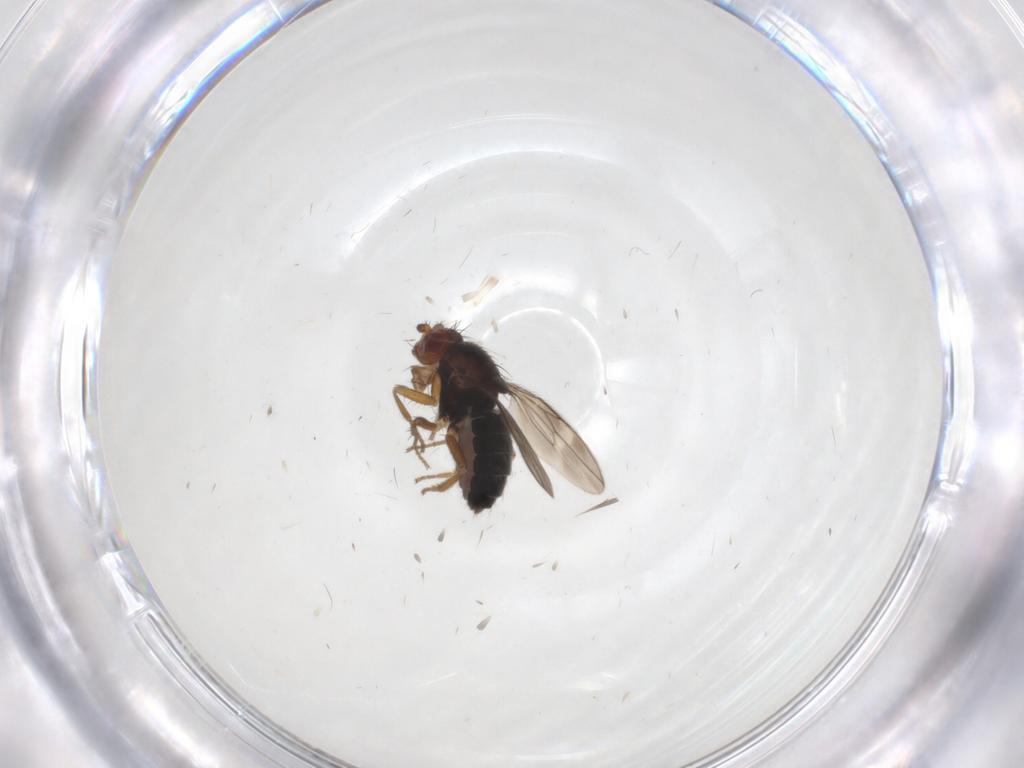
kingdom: Animalia
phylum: Arthropoda
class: Insecta
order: Diptera
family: Sphaeroceridae
